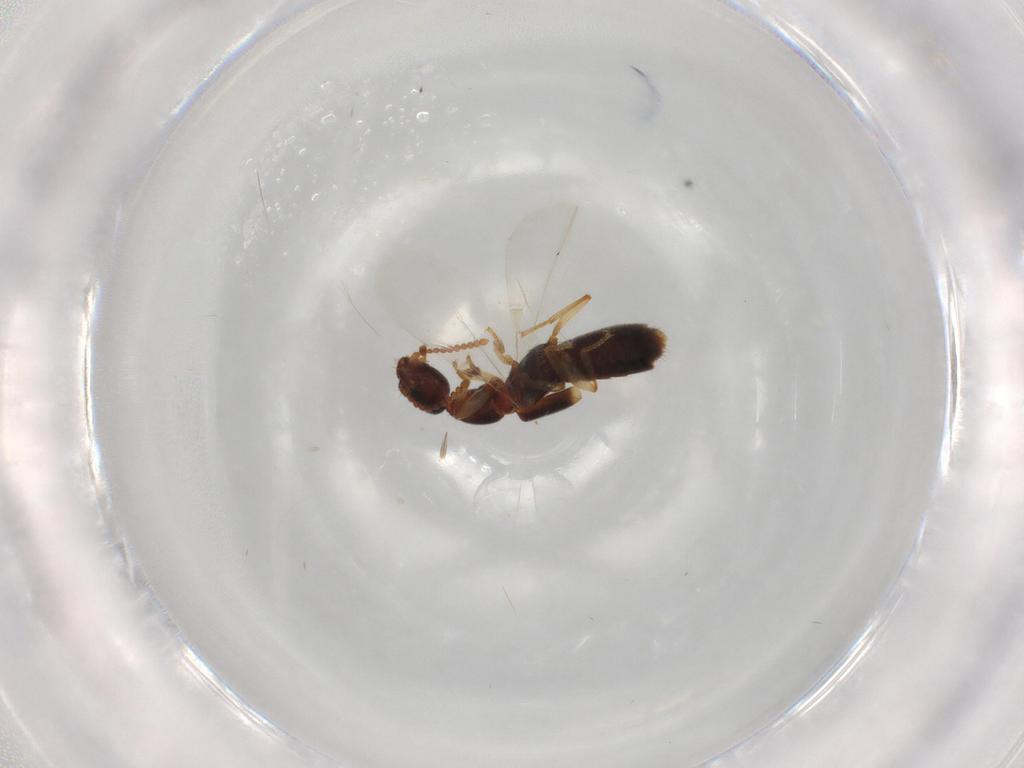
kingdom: Animalia
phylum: Arthropoda
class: Insecta
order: Coleoptera
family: Staphylinidae
